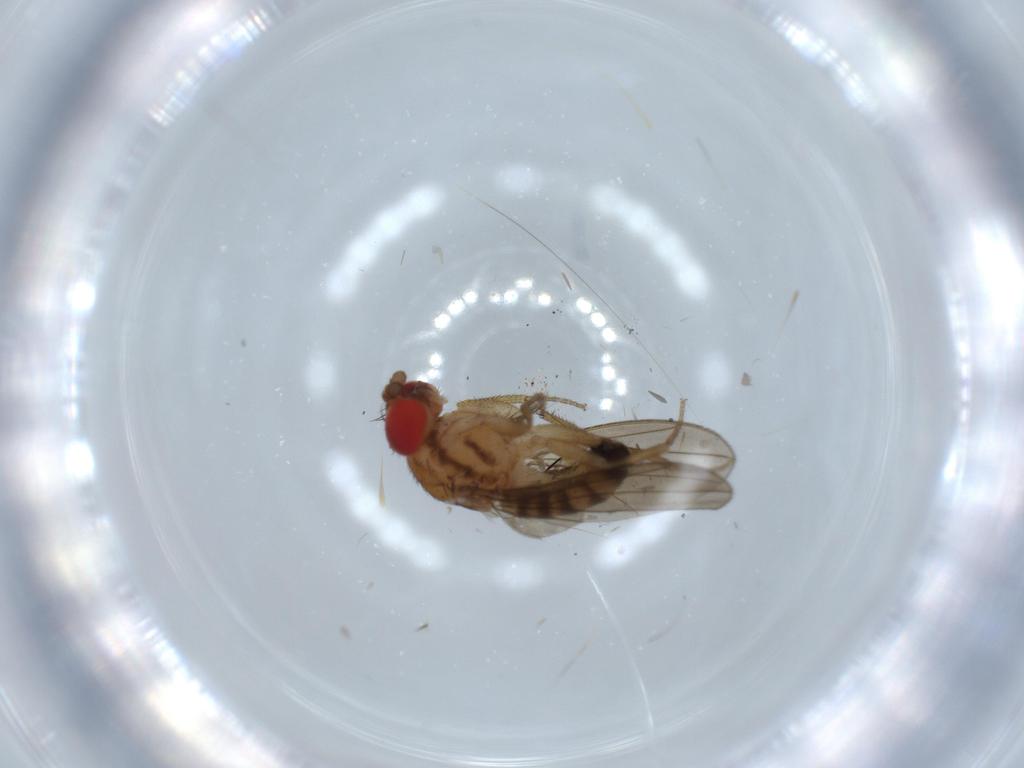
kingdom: Animalia
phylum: Arthropoda
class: Insecta
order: Diptera
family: Drosophilidae
